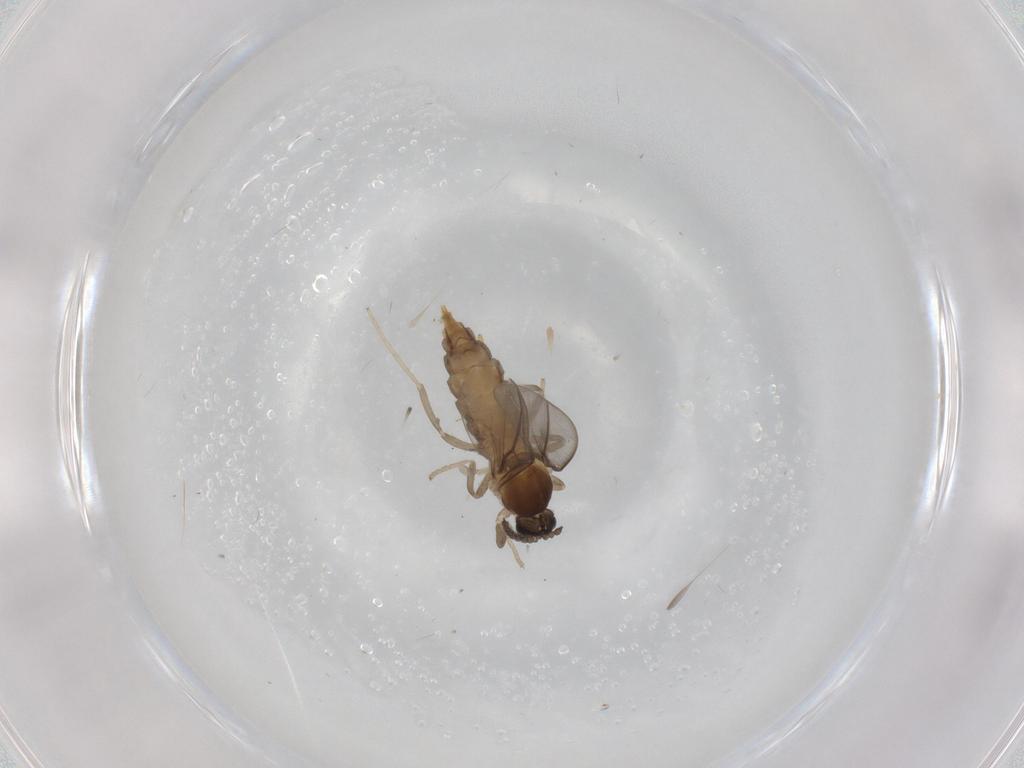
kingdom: Animalia
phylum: Arthropoda
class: Insecta
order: Diptera
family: Cecidomyiidae
